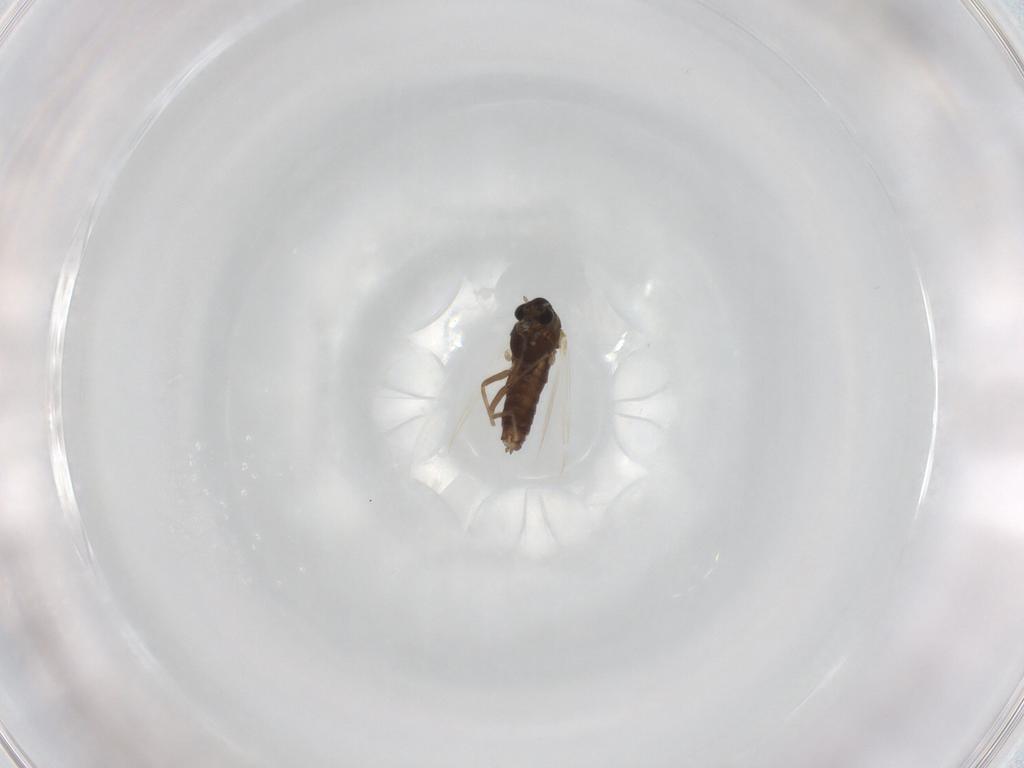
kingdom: Animalia
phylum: Arthropoda
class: Insecta
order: Diptera
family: Chironomidae
